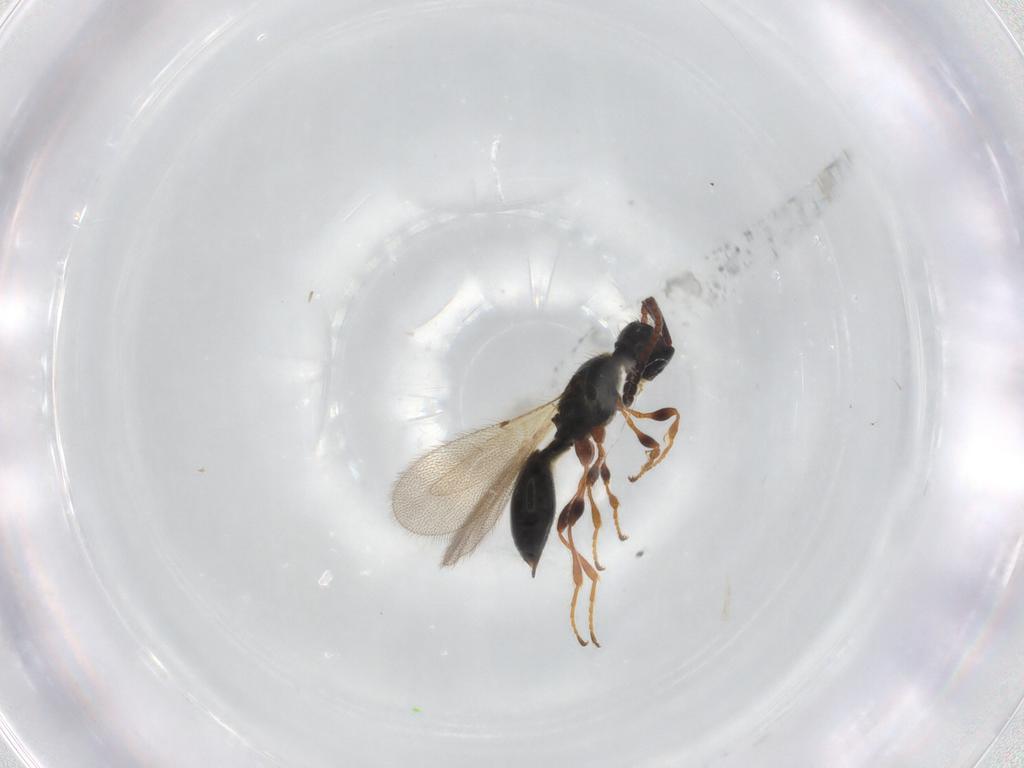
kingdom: Animalia
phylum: Arthropoda
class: Insecta
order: Hymenoptera
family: Diapriidae
